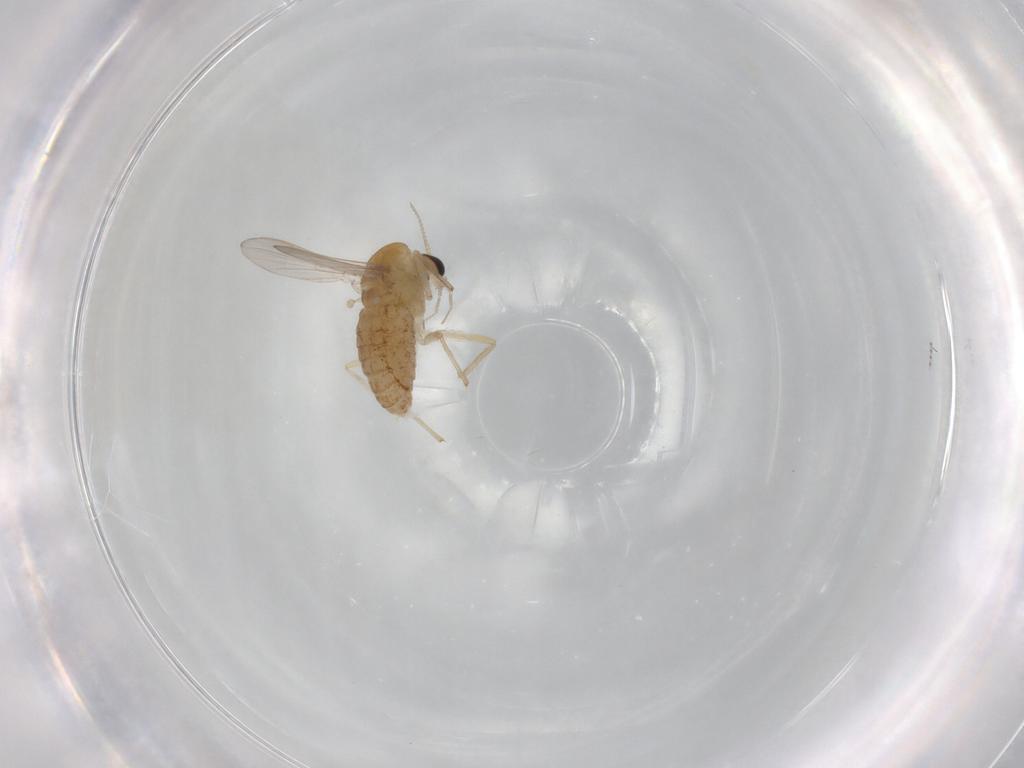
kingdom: Animalia
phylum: Arthropoda
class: Insecta
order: Diptera
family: Chironomidae
